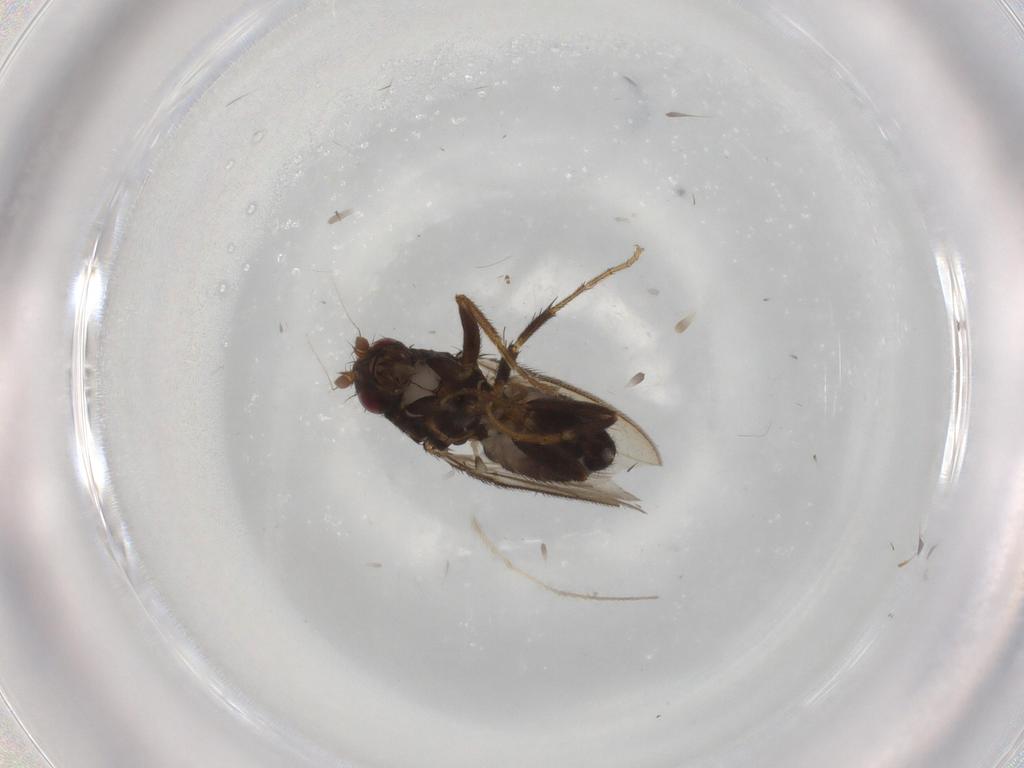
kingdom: Animalia
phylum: Arthropoda
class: Insecta
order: Diptera
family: Sphaeroceridae
